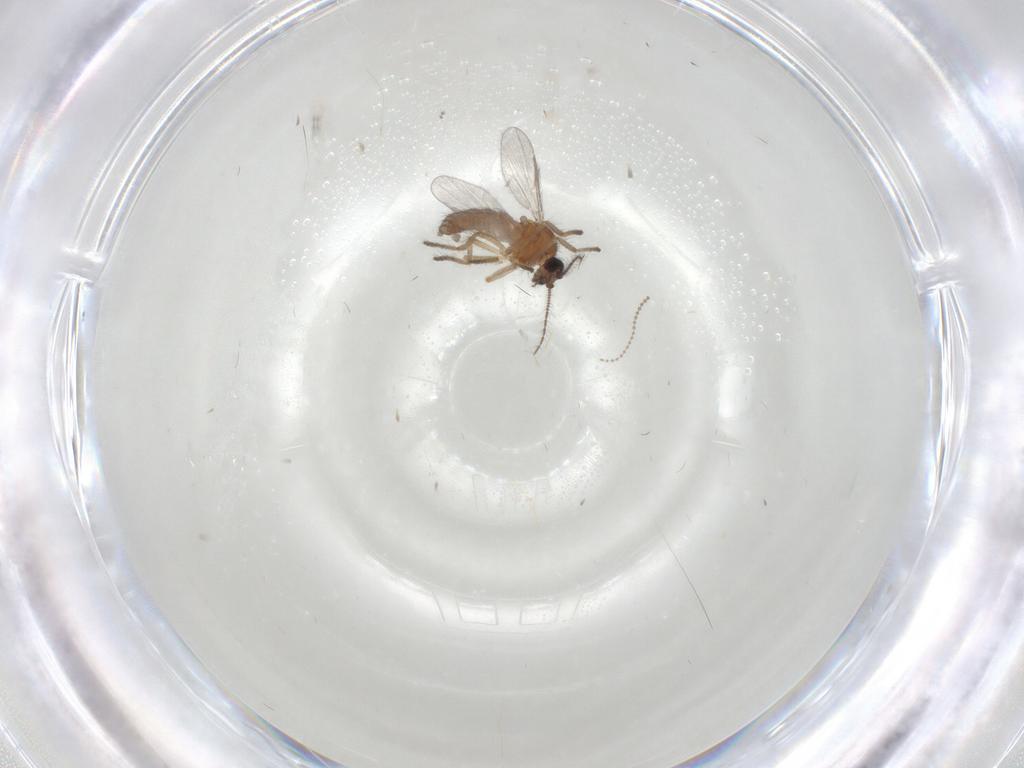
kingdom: Animalia
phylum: Arthropoda
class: Insecta
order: Diptera
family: Ceratopogonidae
